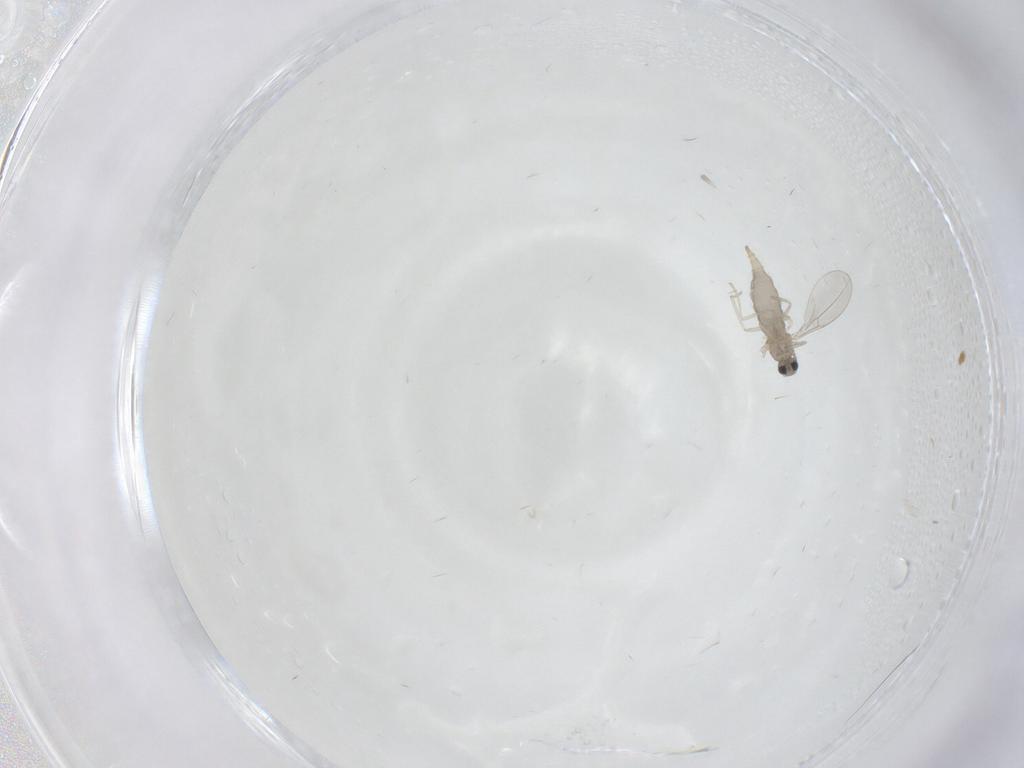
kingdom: Animalia
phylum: Arthropoda
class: Insecta
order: Diptera
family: Cecidomyiidae
